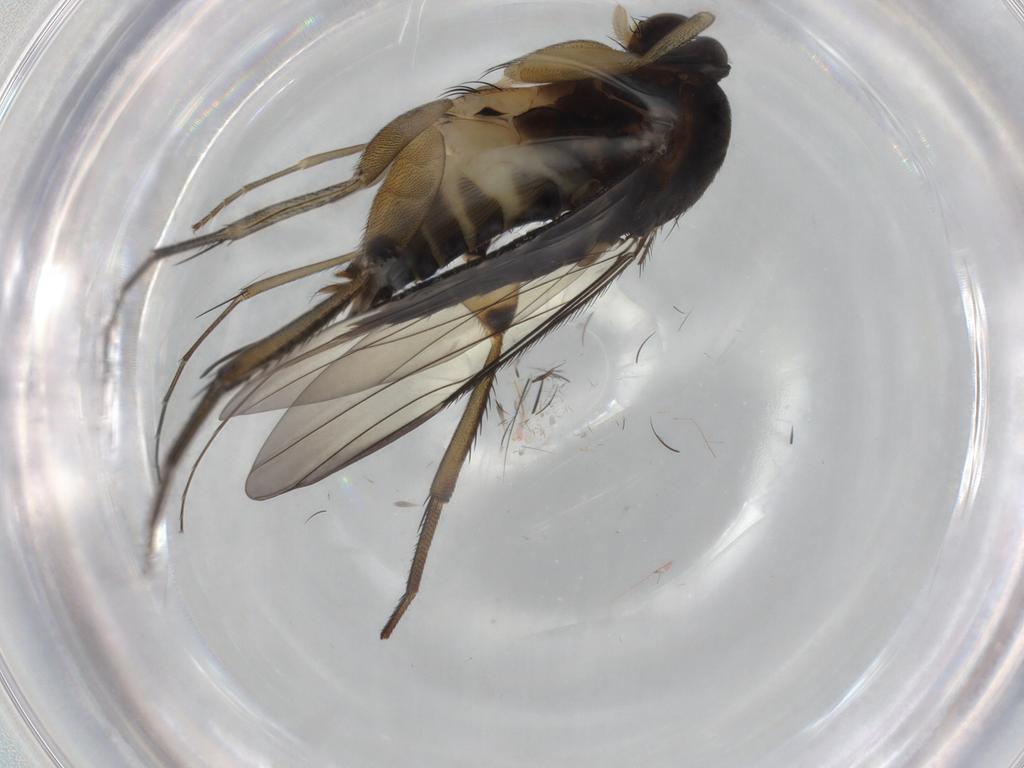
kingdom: Animalia
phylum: Arthropoda
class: Insecta
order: Diptera
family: Phoridae
